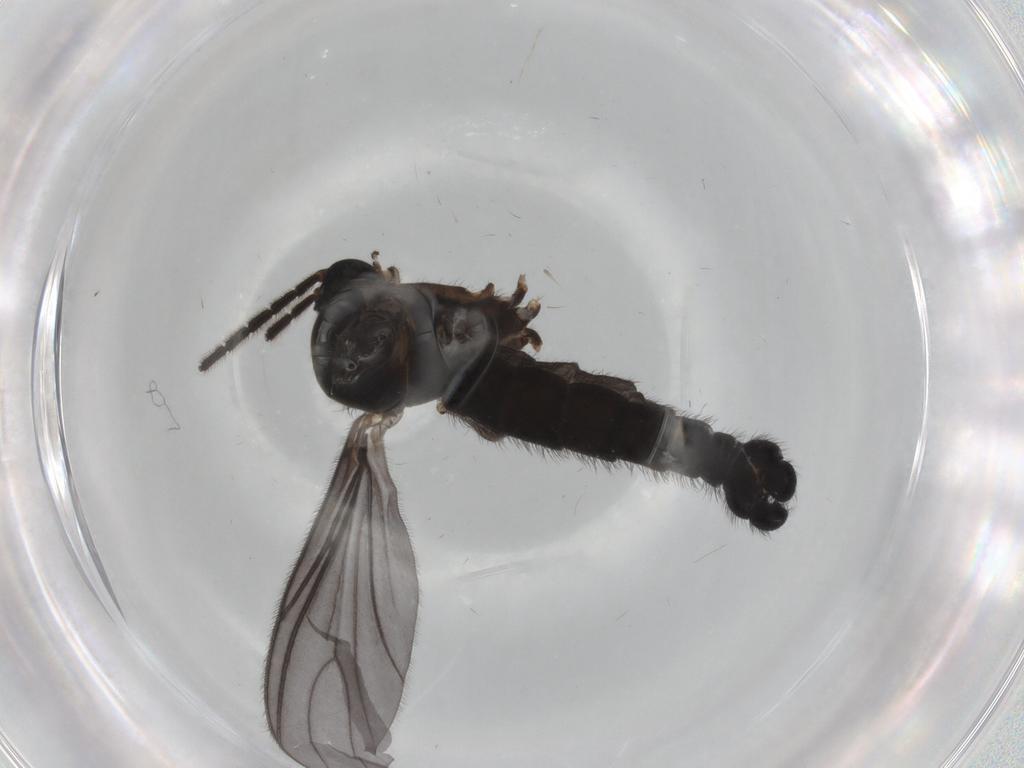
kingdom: Animalia
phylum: Arthropoda
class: Insecta
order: Diptera
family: Sciaridae
